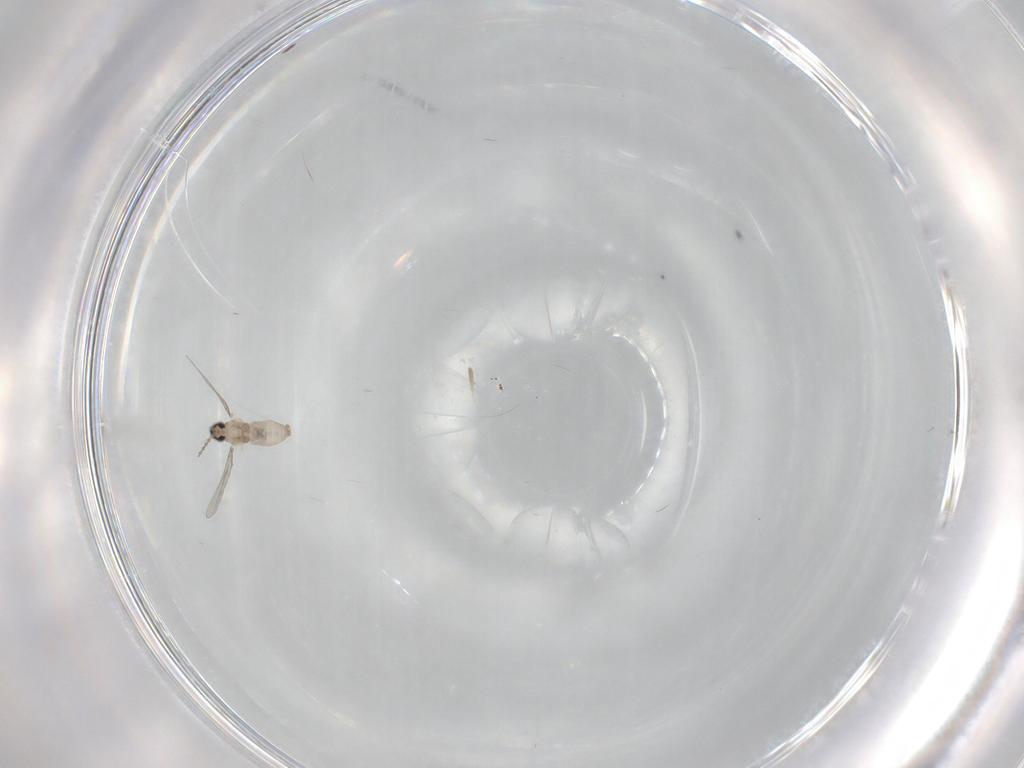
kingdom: Animalia
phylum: Arthropoda
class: Insecta
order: Diptera
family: Cecidomyiidae
